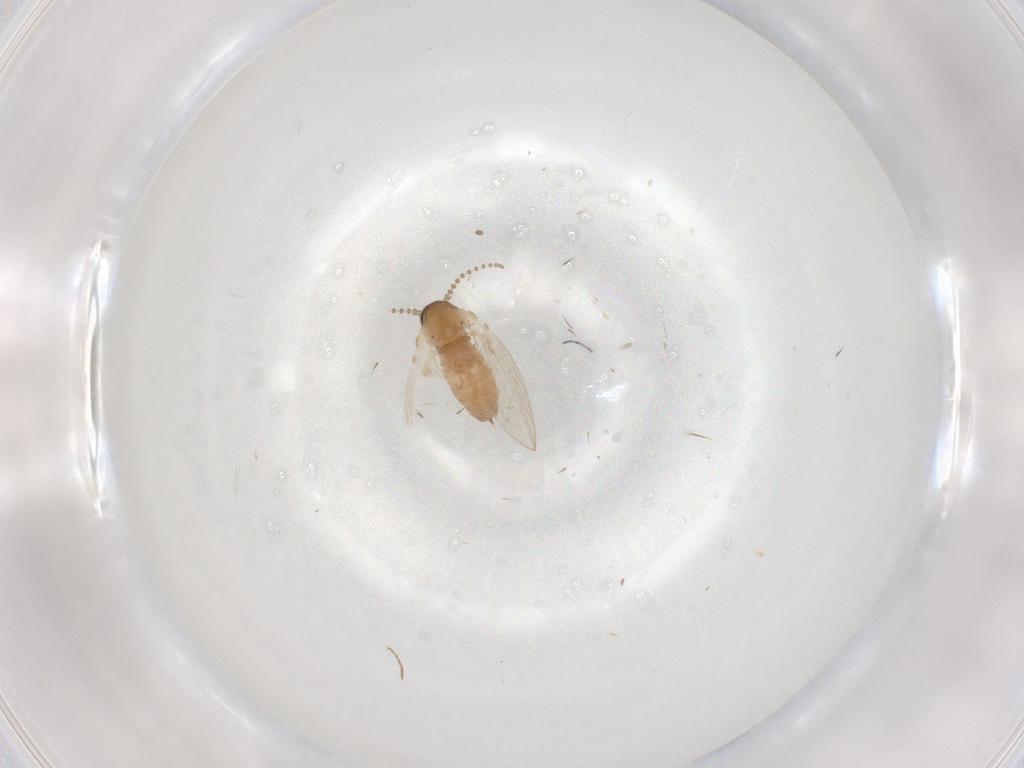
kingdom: Animalia
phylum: Arthropoda
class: Insecta
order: Diptera
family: Psychodidae
